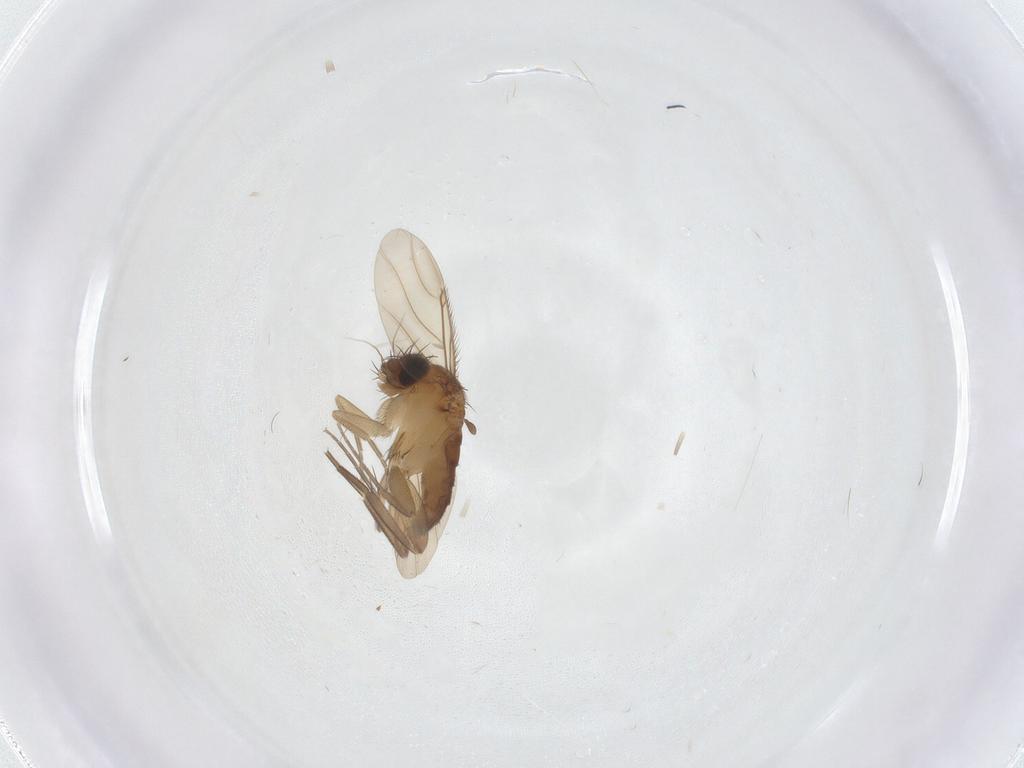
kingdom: Animalia
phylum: Arthropoda
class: Insecta
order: Diptera
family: Phoridae
